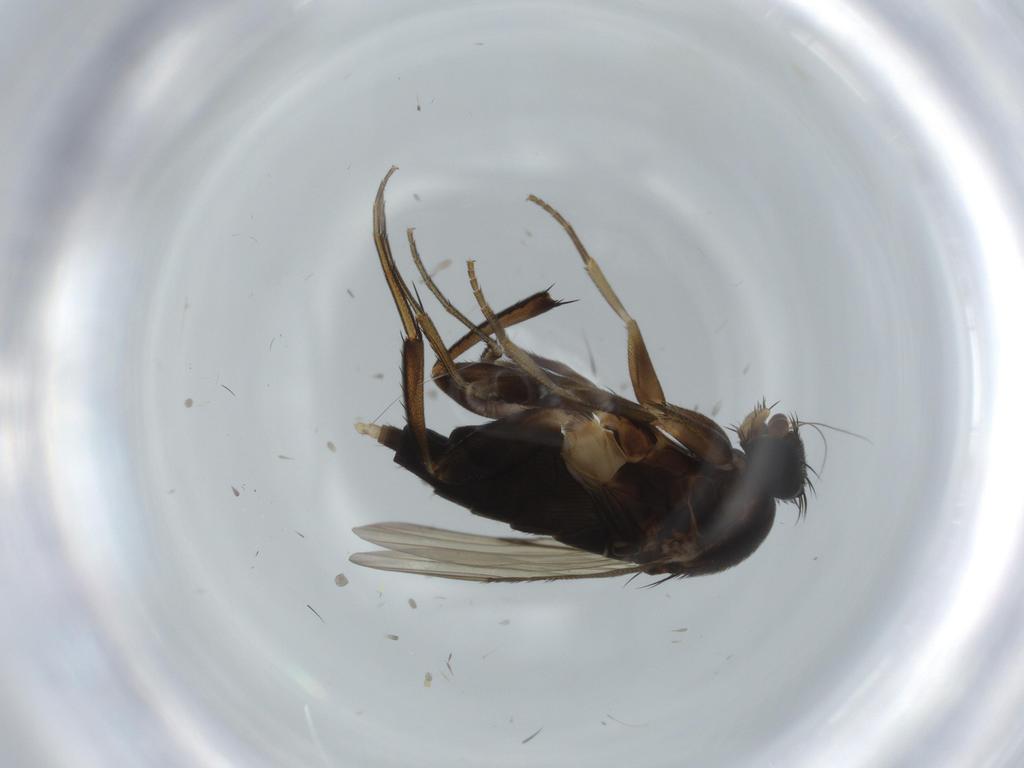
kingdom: Animalia
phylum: Arthropoda
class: Insecta
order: Diptera
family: Phoridae
